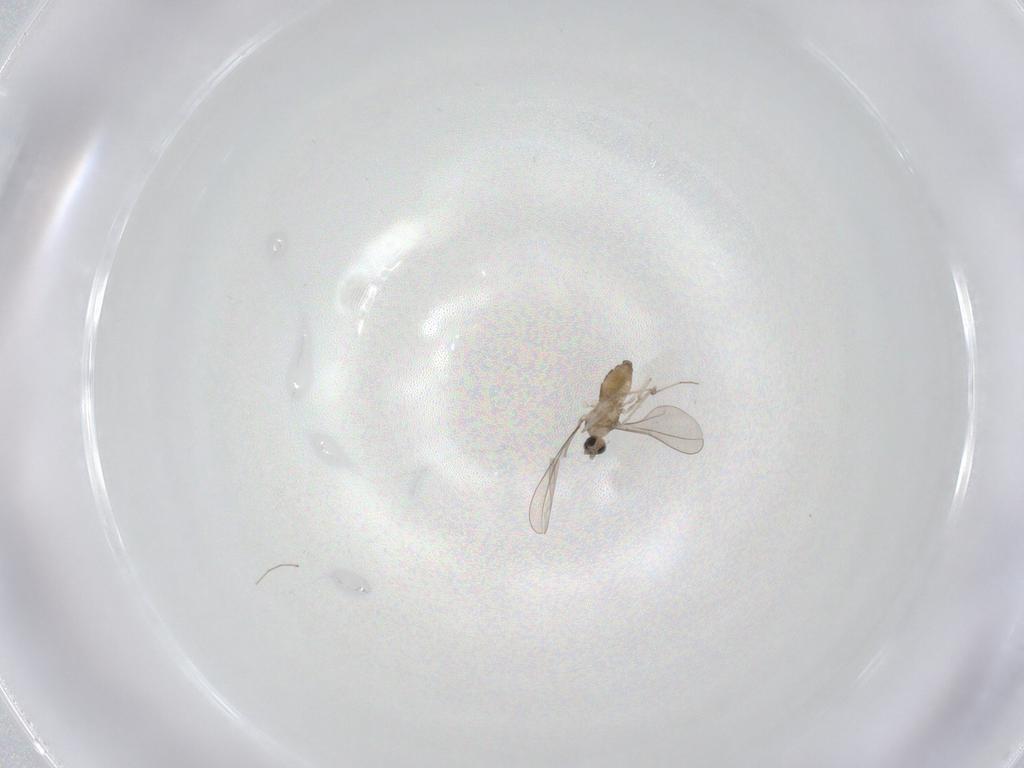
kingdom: Animalia
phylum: Arthropoda
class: Insecta
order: Diptera
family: Cecidomyiidae
